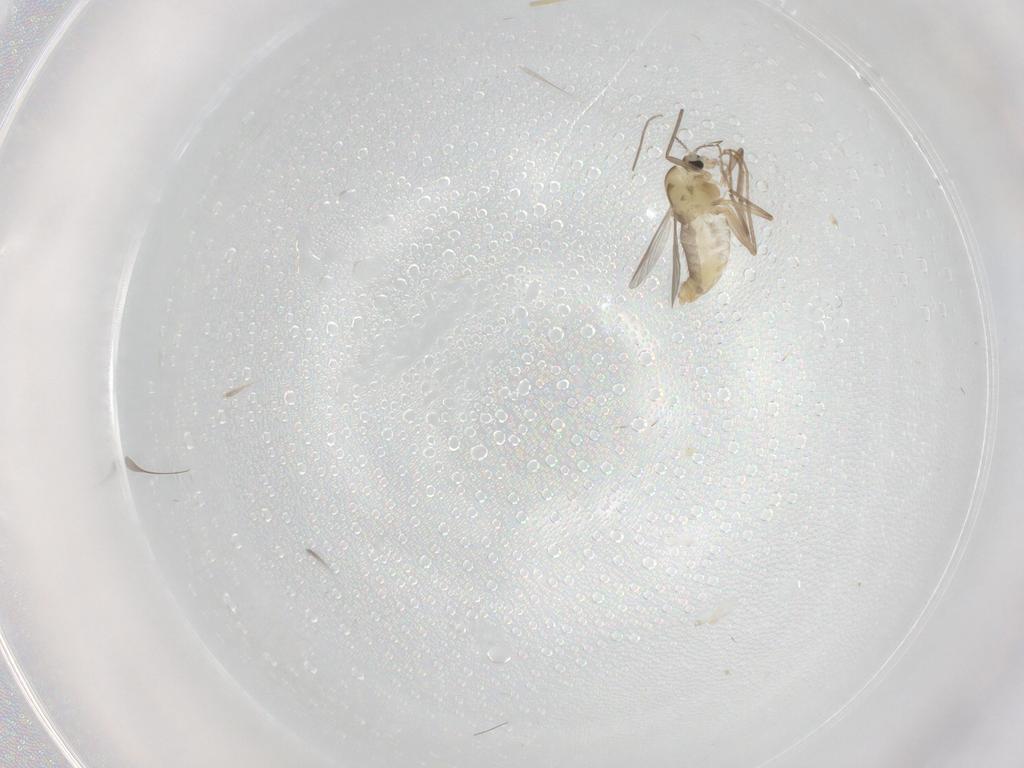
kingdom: Animalia
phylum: Arthropoda
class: Insecta
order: Diptera
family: Chironomidae
